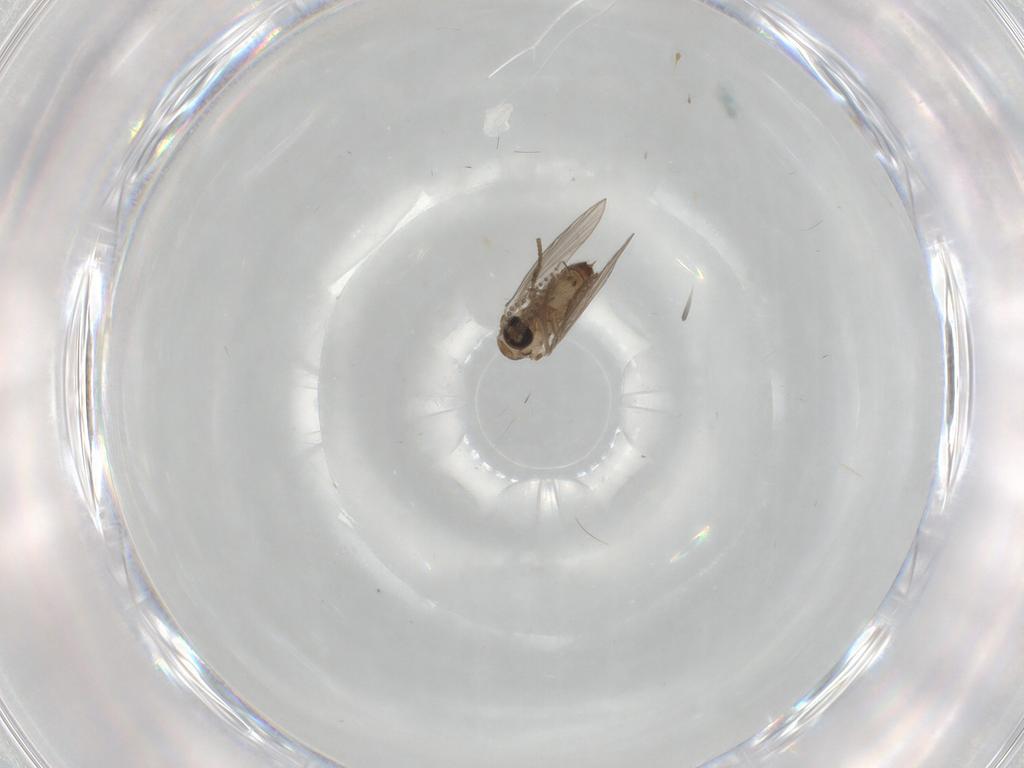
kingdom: Animalia
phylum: Arthropoda
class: Insecta
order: Diptera
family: Psychodidae
